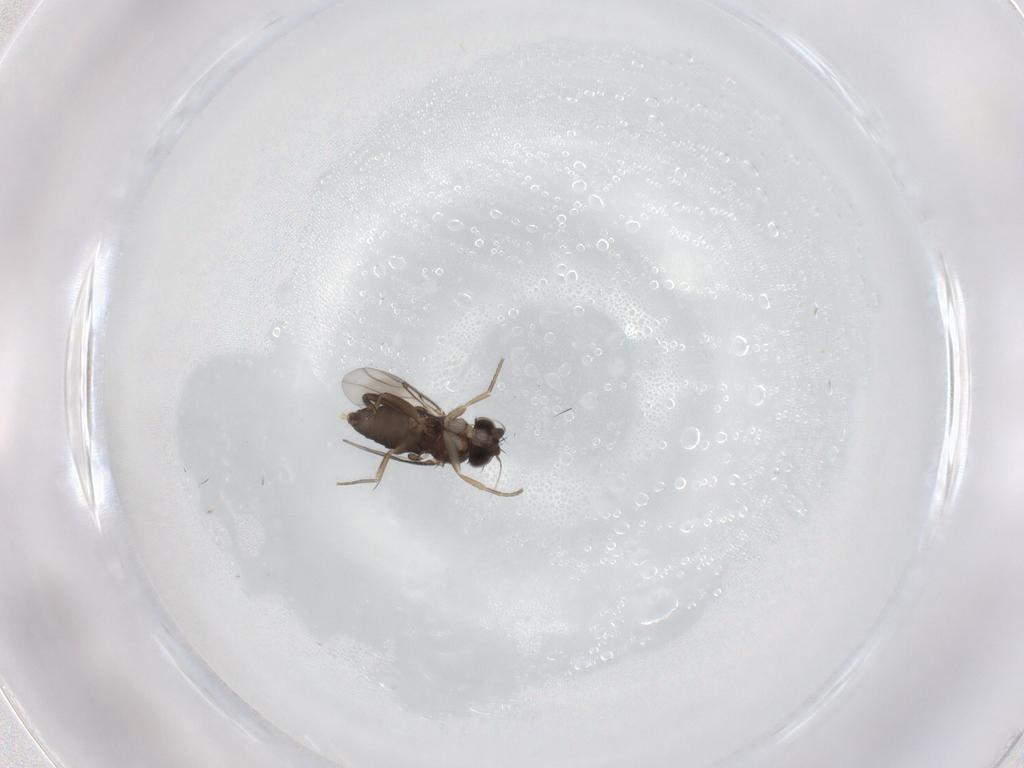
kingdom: Animalia
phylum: Arthropoda
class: Insecta
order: Diptera
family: Phoridae
